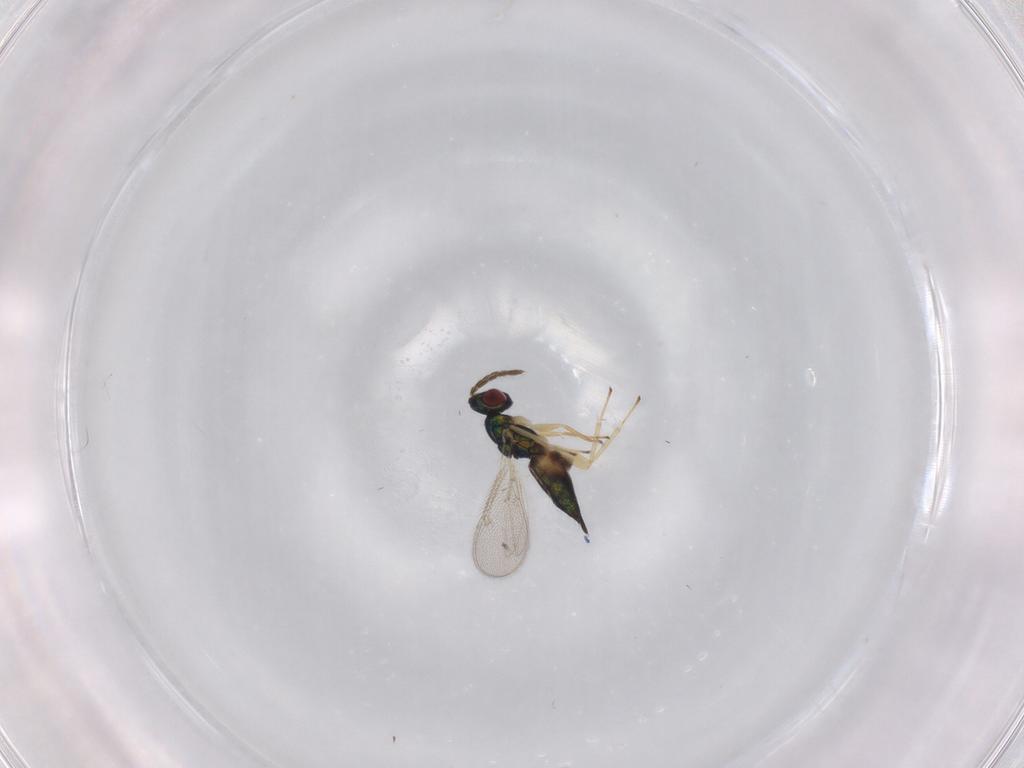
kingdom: Animalia
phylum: Arthropoda
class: Insecta
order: Hymenoptera
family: Eulophidae
